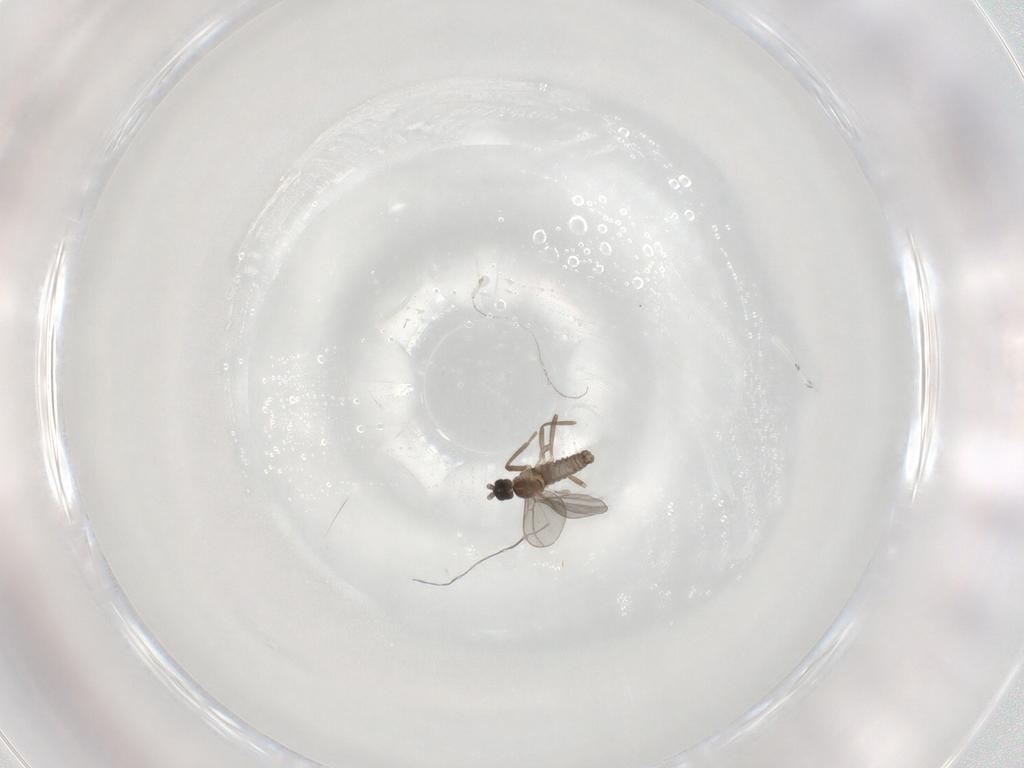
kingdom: Animalia
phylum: Arthropoda
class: Insecta
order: Diptera
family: Cecidomyiidae
